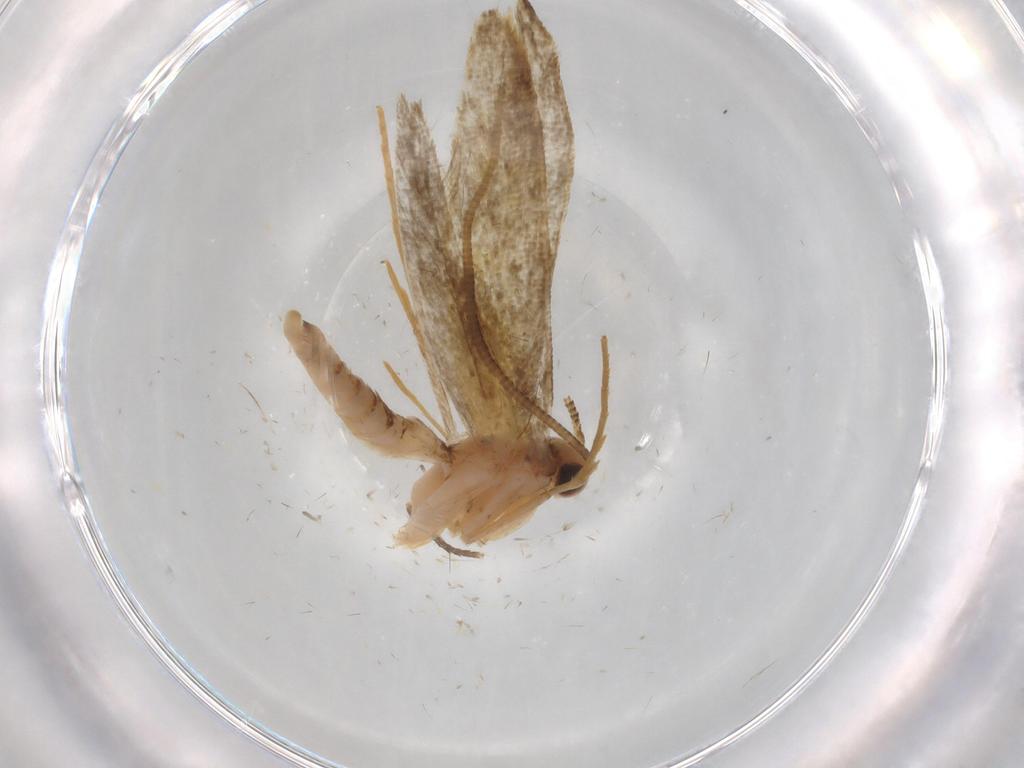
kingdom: Animalia
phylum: Arthropoda
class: Insecta
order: Lepidoptera
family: Tineidae
